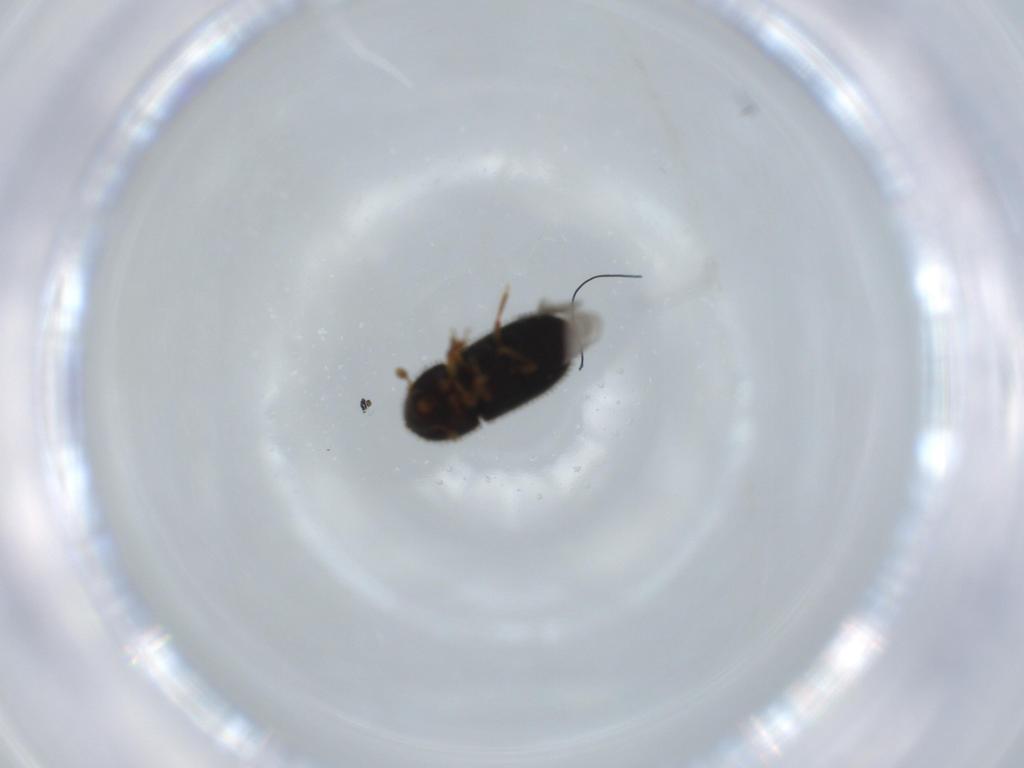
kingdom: Animalia
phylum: Arthropoda
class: Insecta
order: Coleoptera
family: Curculionidae
